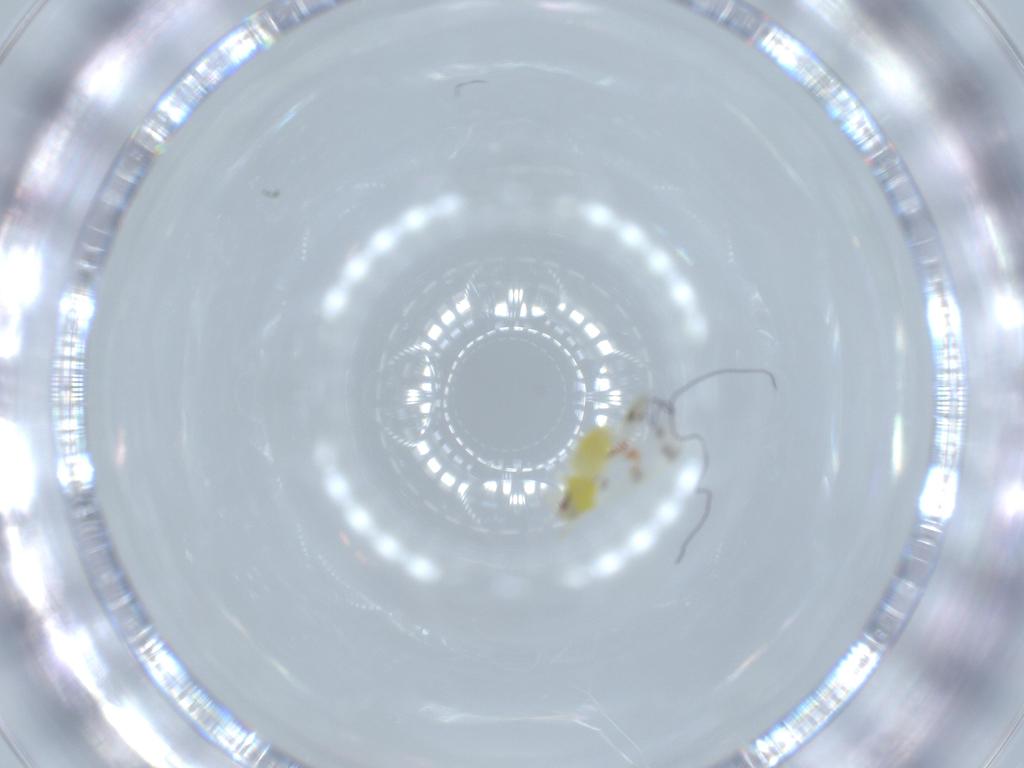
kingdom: Animalia
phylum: Arthropoda
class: Insecta
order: Hemiptera
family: Aleyrodidae
